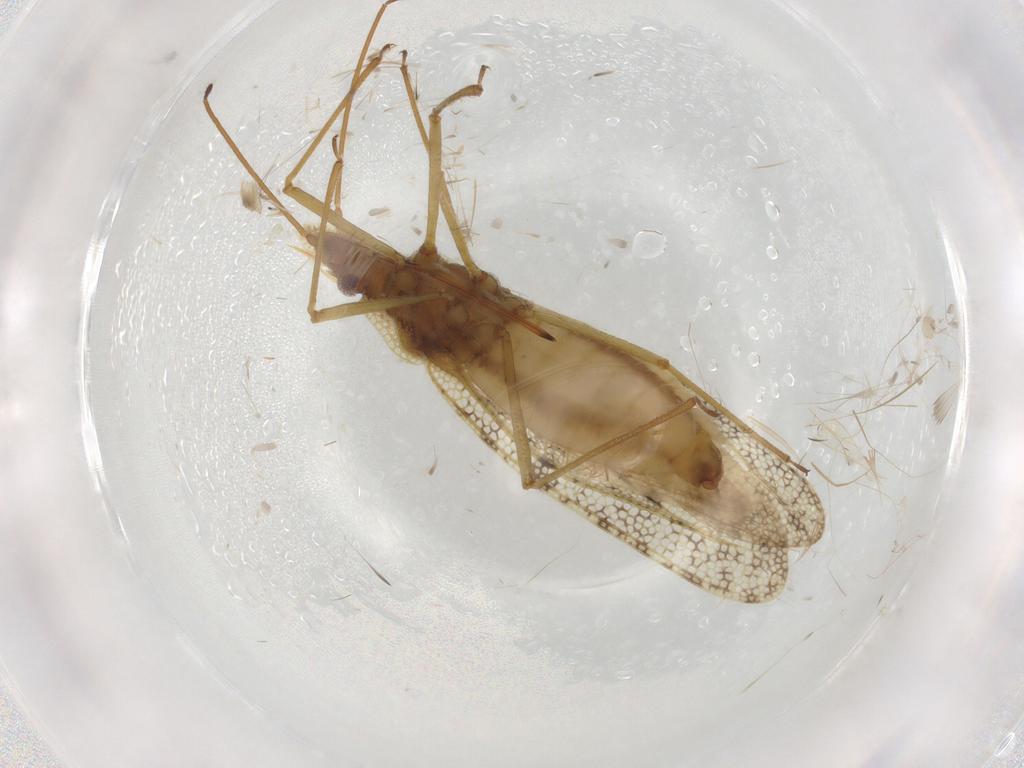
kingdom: Animalia
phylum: Arthropoda
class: Insecta
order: Hemiptera
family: Tingidae
